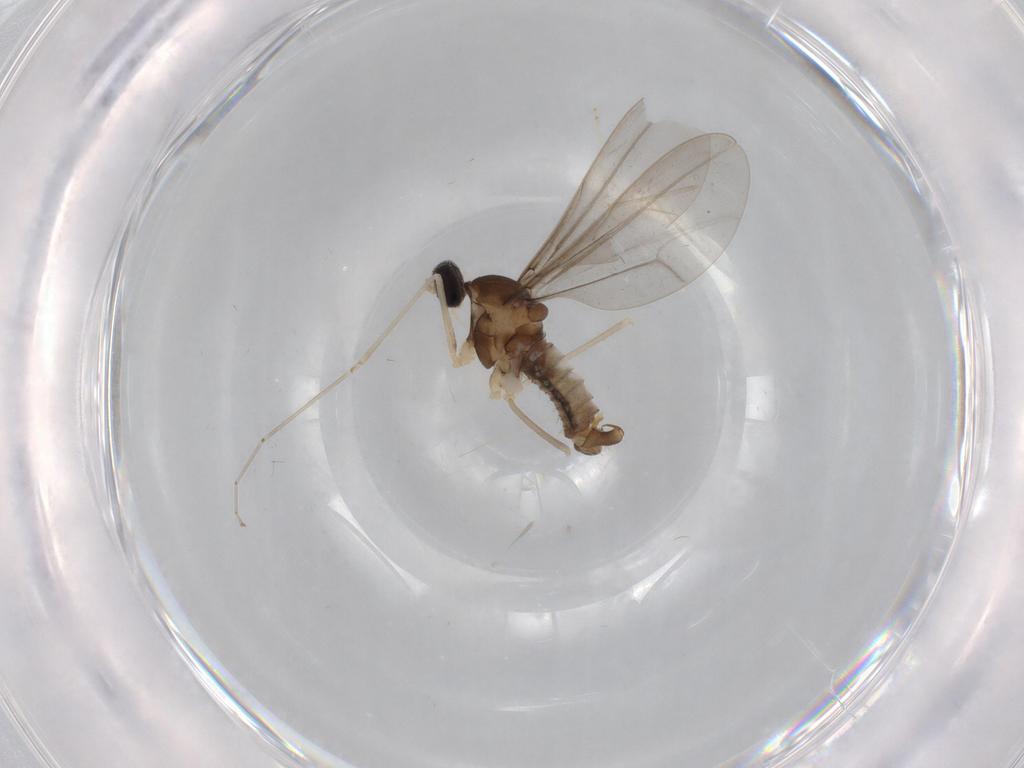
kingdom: Animalia
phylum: Arthropoda
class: Insecta
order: Diptera
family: Cecidomyiidae
